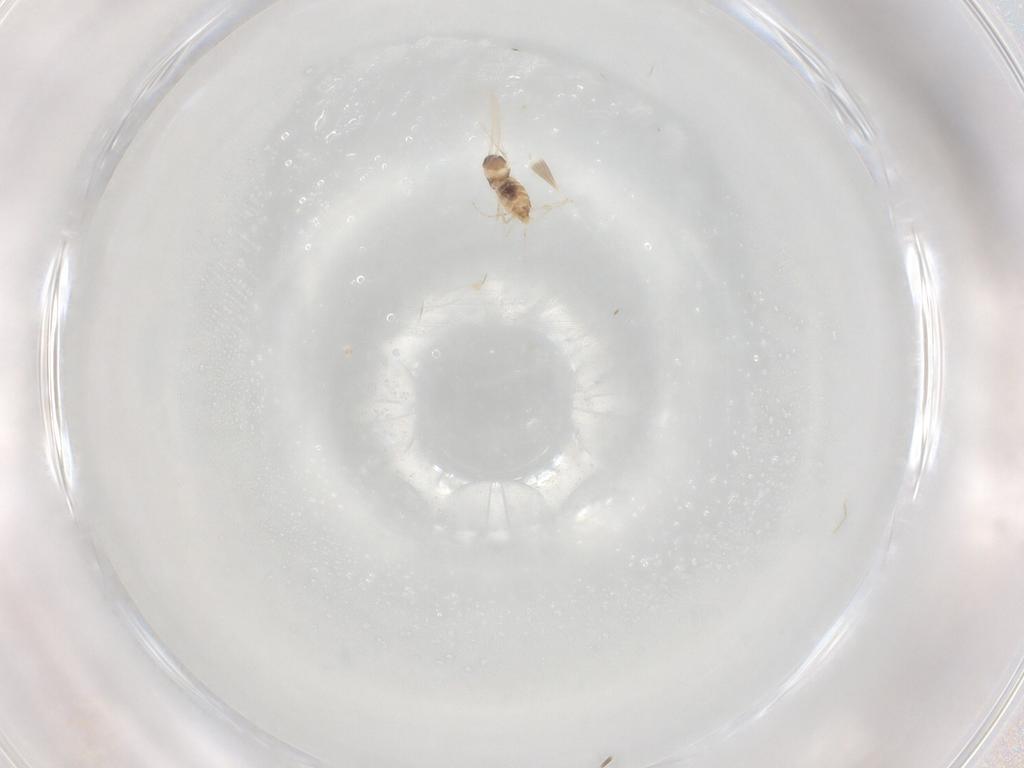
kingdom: Animalia
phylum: Arthropoda
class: Insecta
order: Diptera
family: Cecidomyiidae
